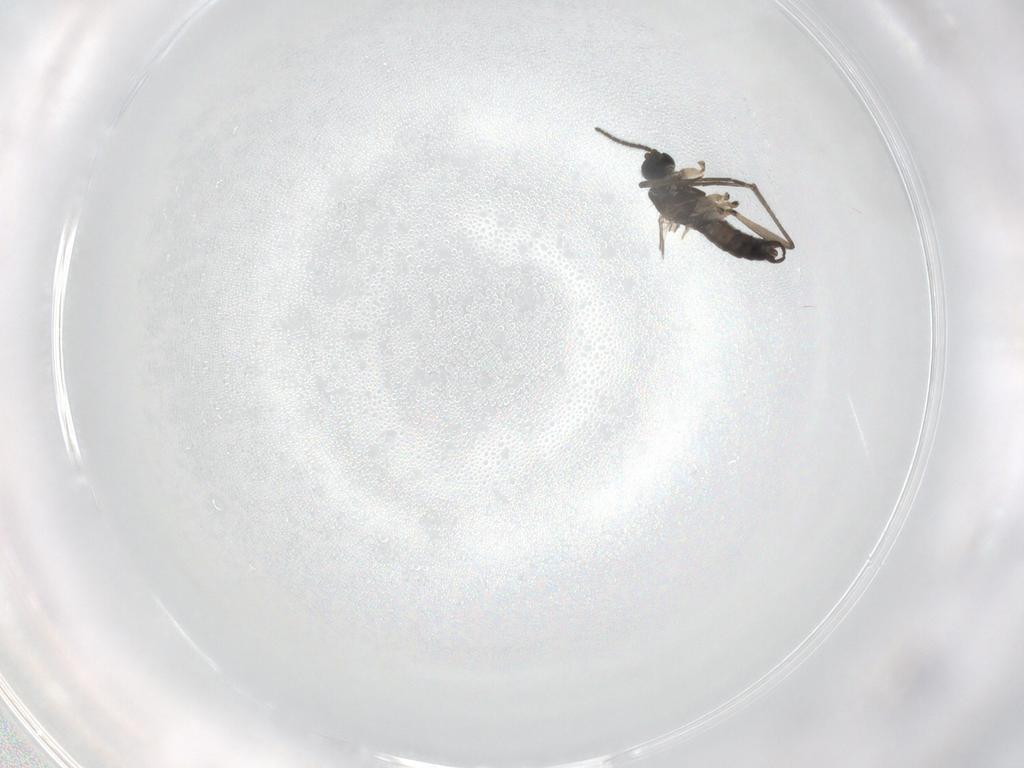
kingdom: Animalia
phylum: Arthropoda
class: Insecta
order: Diptera
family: Sciaridae
